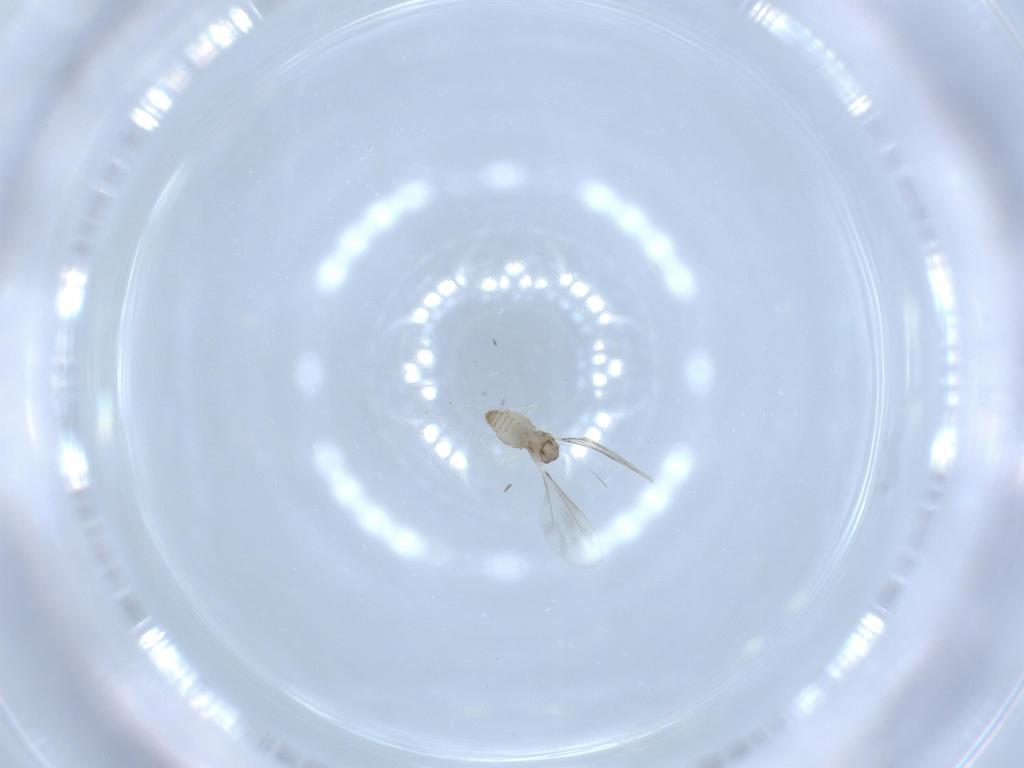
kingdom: Animalia
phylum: Arthropoda
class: Insecta
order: Diptera
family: Cecidomyiidae
